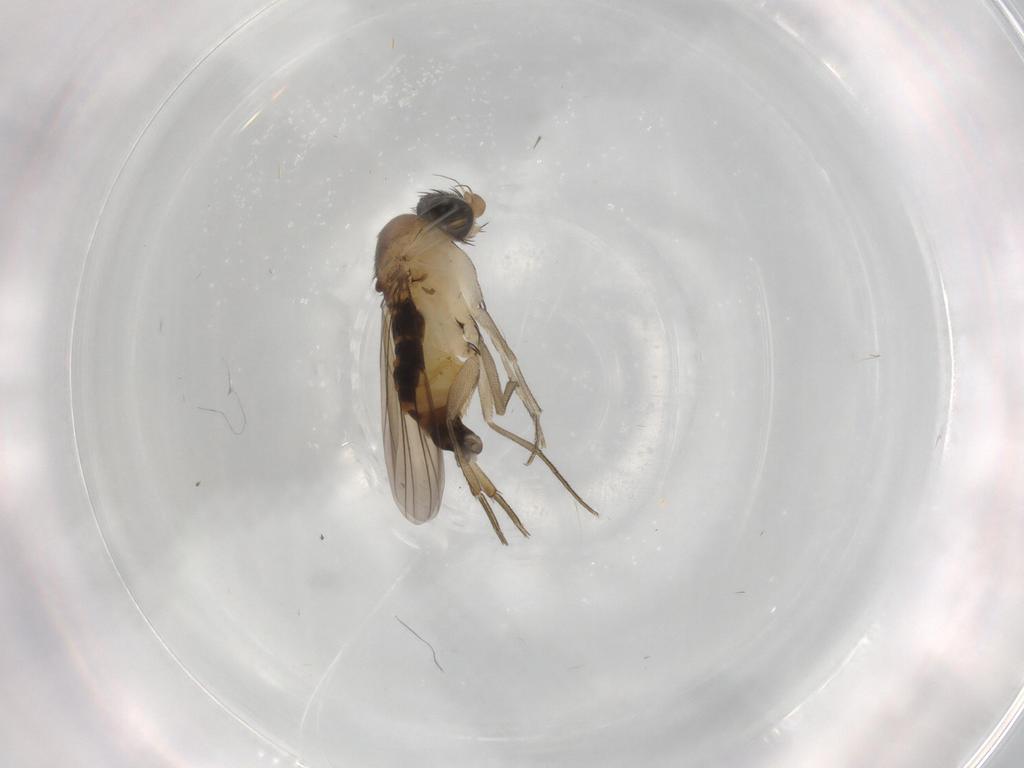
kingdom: Animalia
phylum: Arthropoda
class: Insecta
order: Diptera
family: Phoridae
